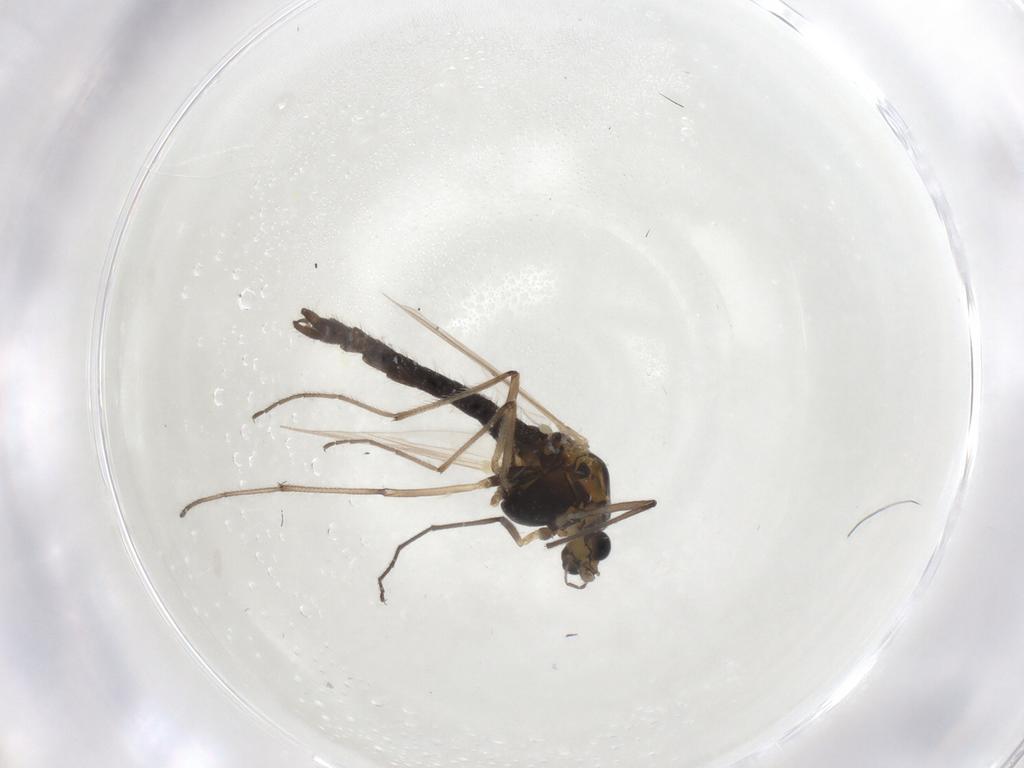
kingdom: Animalia
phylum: Arthropoda
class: Insecta
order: Diptera
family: Chironomidae
